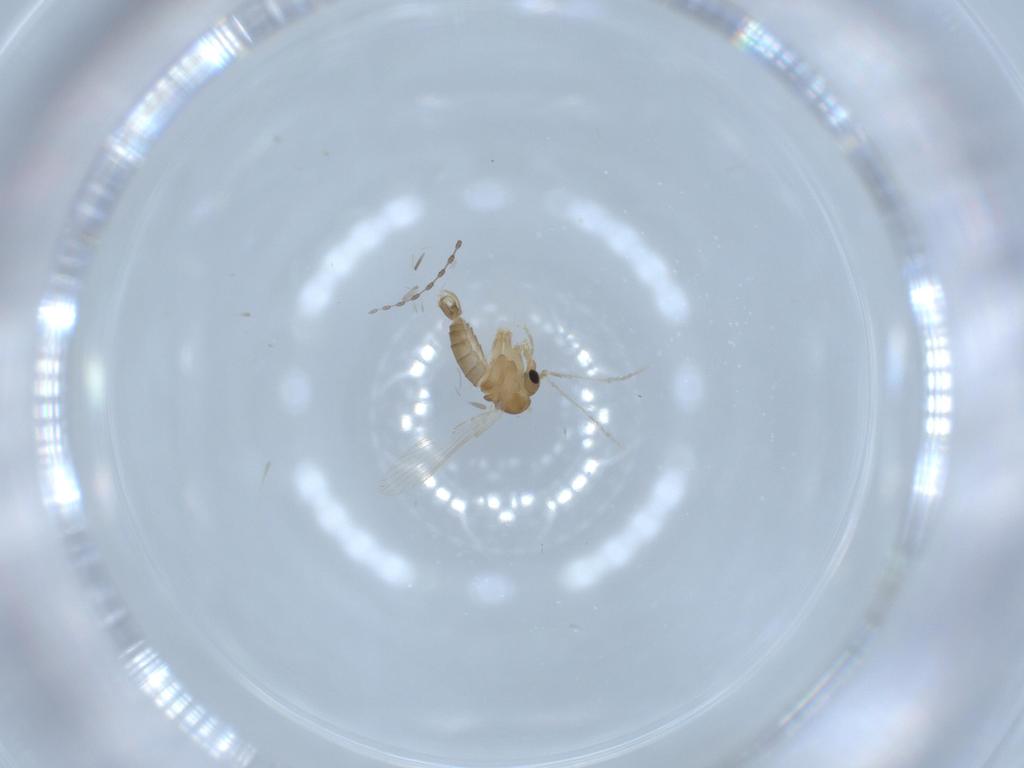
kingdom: Animalia
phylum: Arthropoda
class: Insecta
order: Diptera
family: Psychodidae
